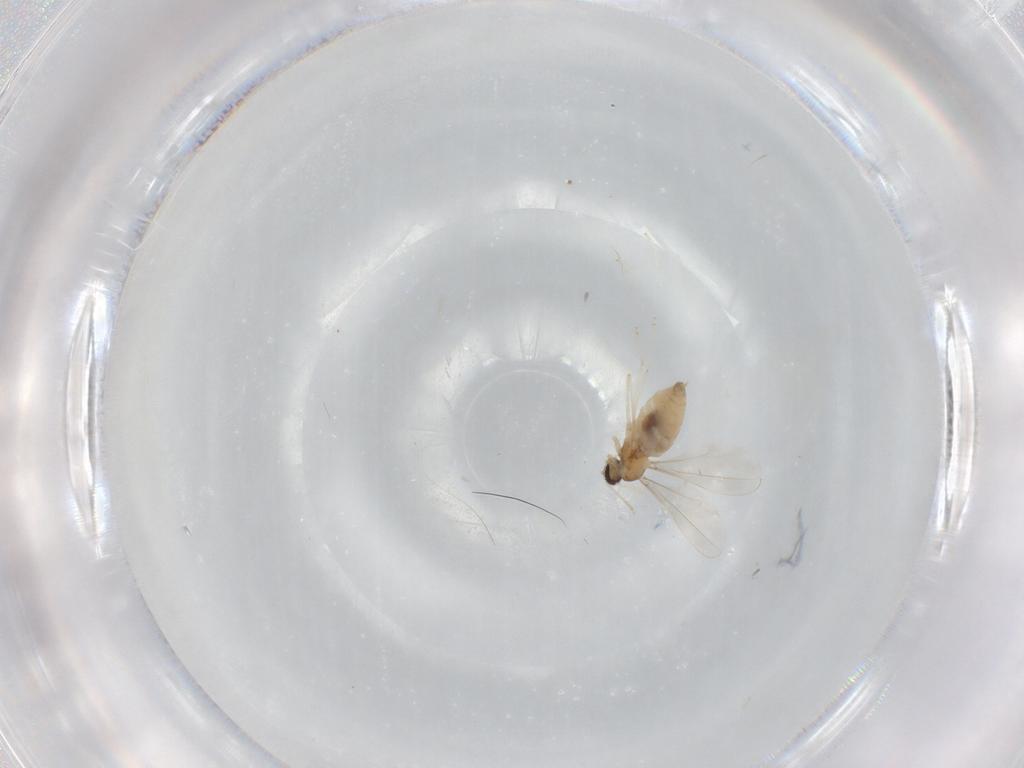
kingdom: Animalia
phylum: Arthropoda
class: Insecta
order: Diptera
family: Cecidomyiidae
